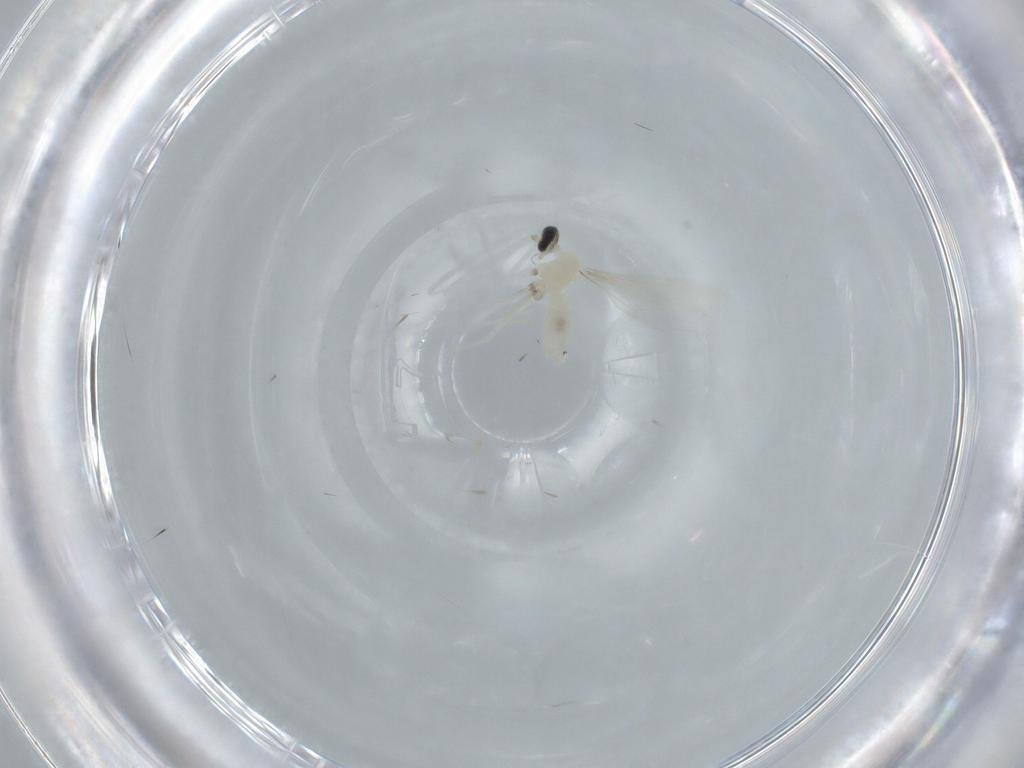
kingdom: Animalia
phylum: Arthropoda
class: Insecta
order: Diptera
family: Cecidomyiidae
